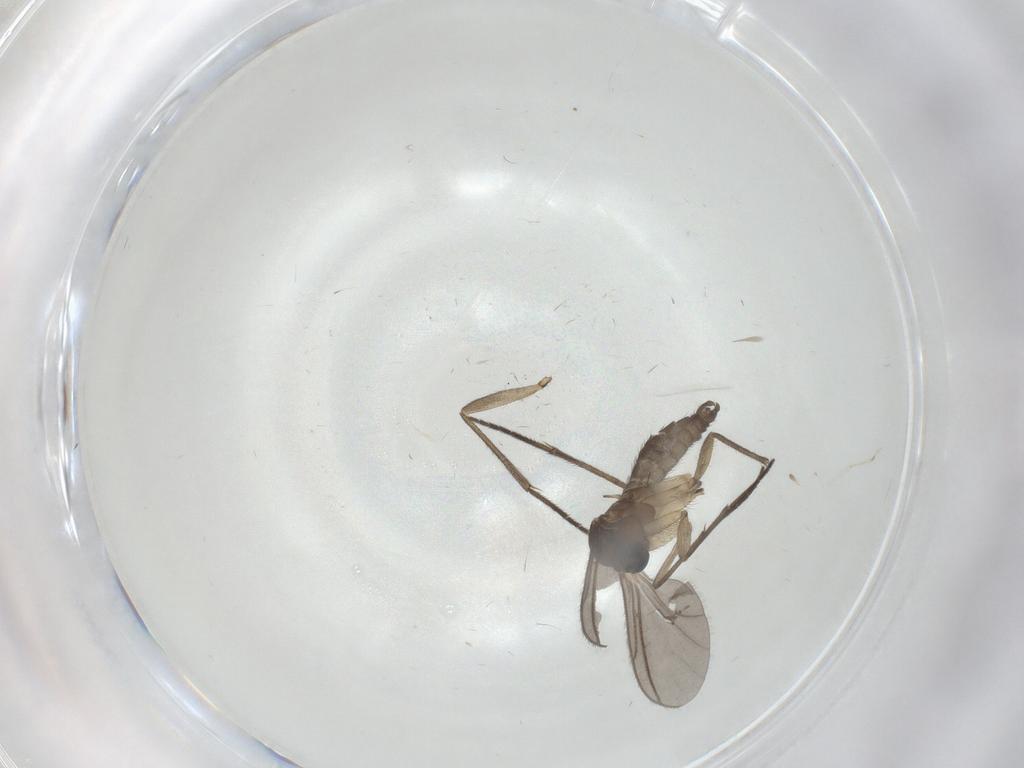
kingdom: Animalia
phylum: Arthropoda
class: Insecta
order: Diptera
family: Sciaridae
